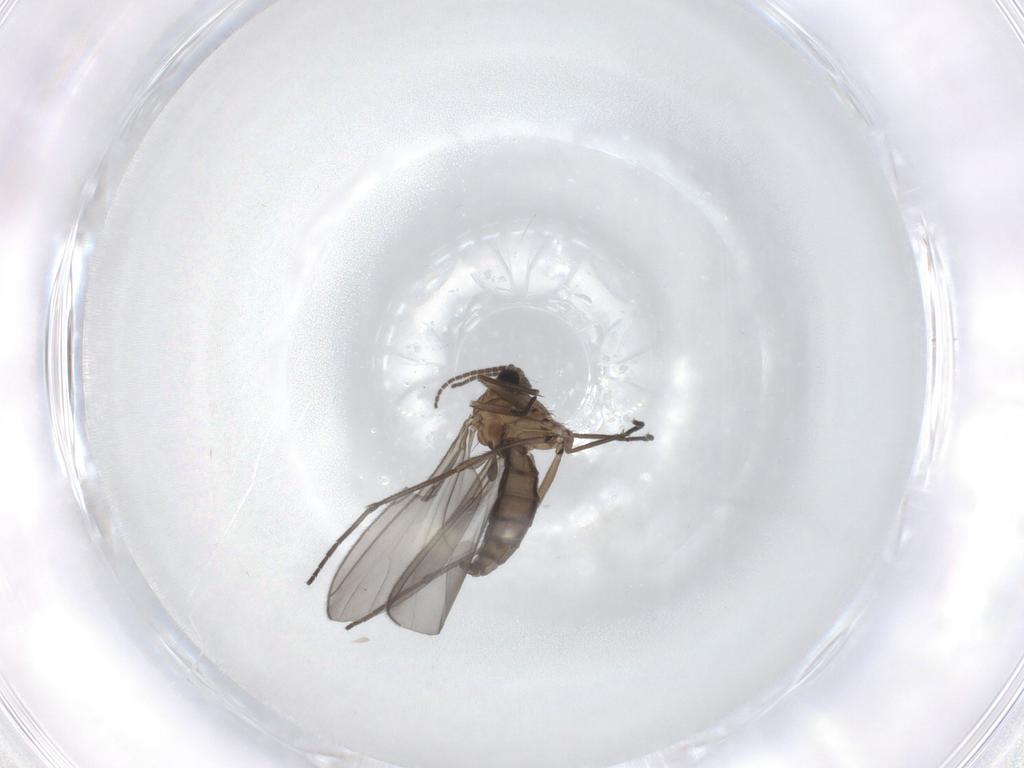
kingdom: Animalia
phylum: Arthropoda
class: Insecta
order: Diptera
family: Sciaridae
